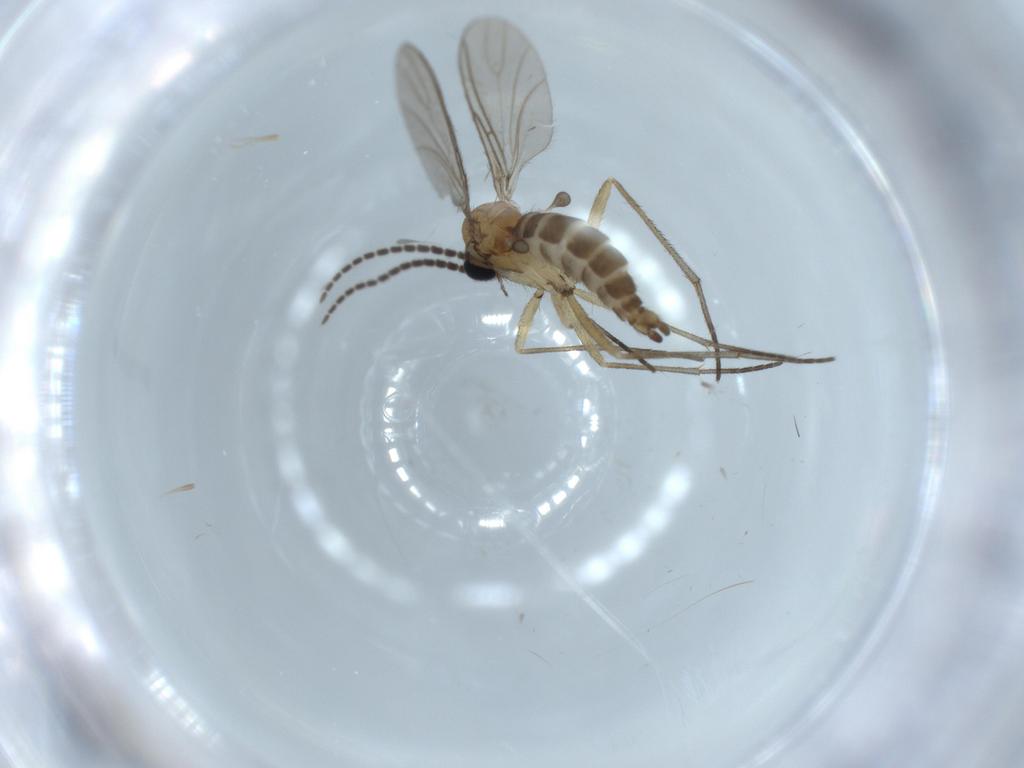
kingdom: Animalia
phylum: Arthropoda
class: Insecta
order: Diptera
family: Sciaridae
